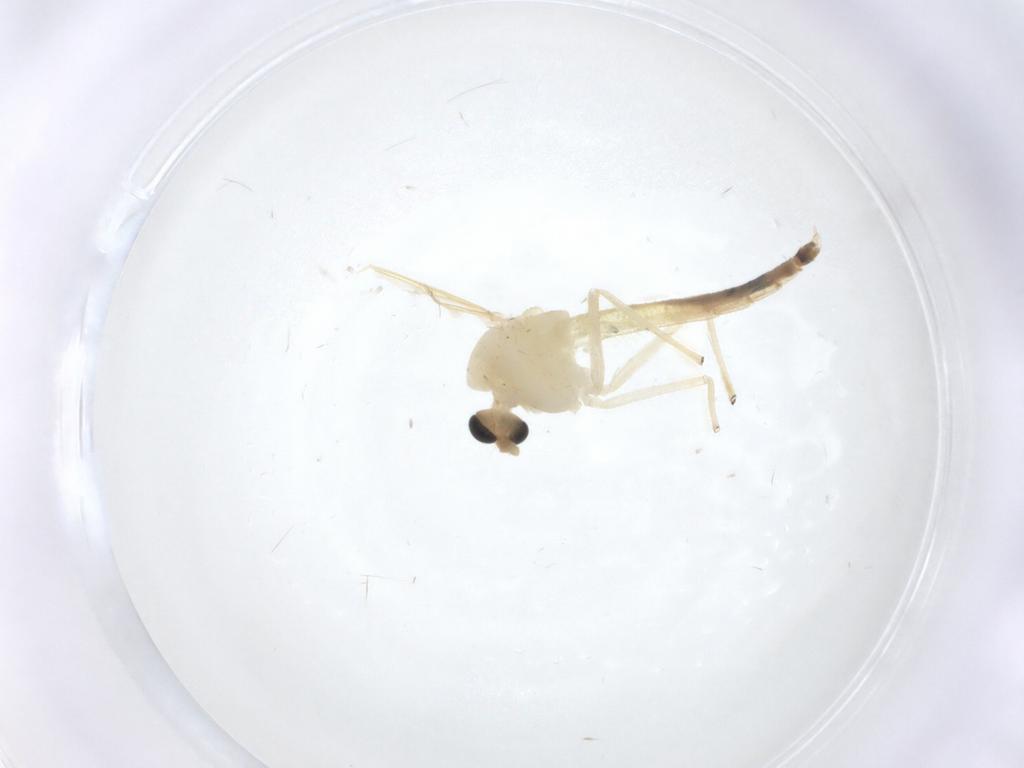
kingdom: Animalia
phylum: Arthropoda
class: Insecta
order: Diptera
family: Chironomidae
